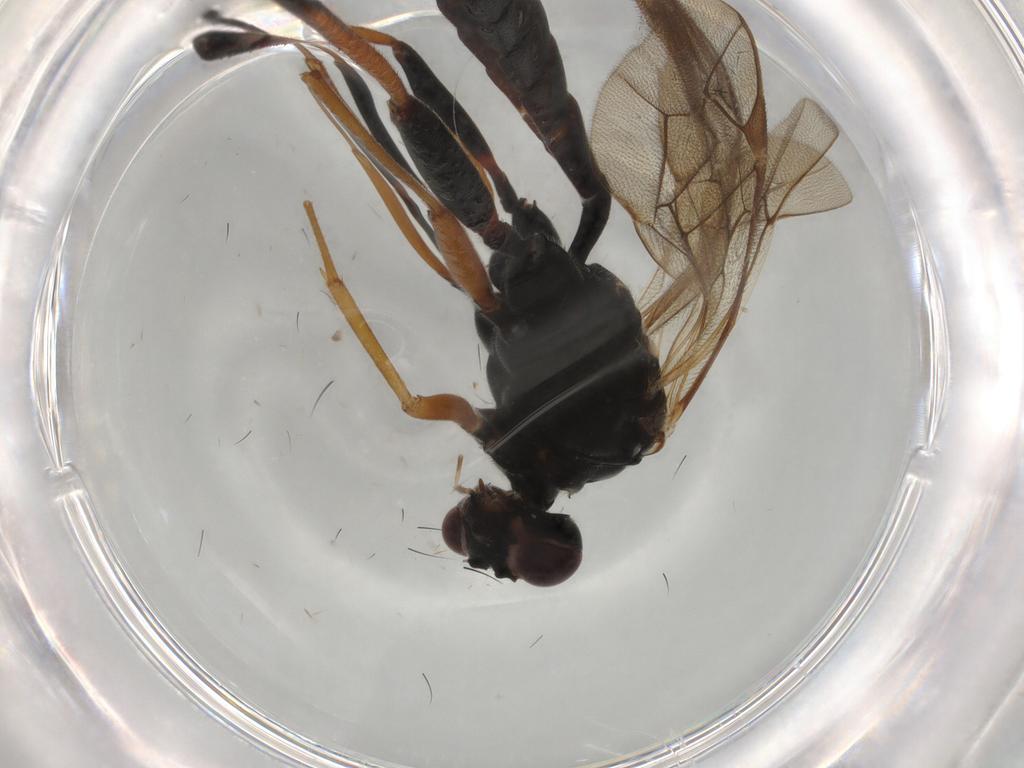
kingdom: Animalia
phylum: Arthropoda
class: Insecta
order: Hymenoptera
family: Ichneumonidae
